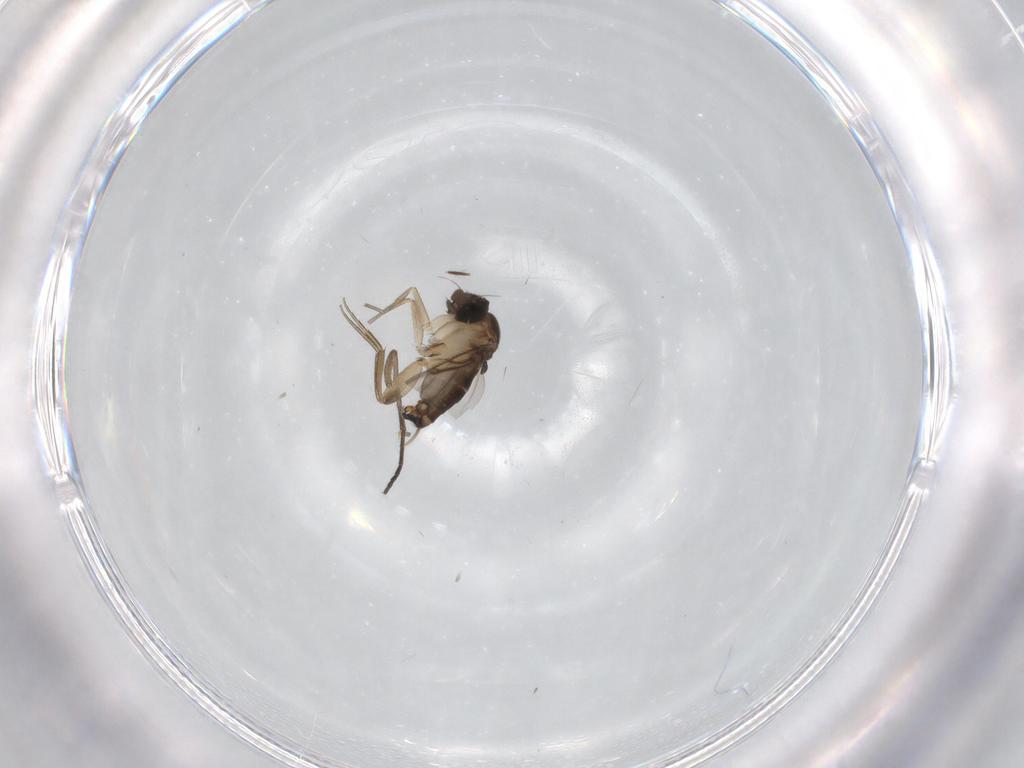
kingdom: Animalia
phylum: Arthropoda
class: Insecta
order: Diptera
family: Phoridae
